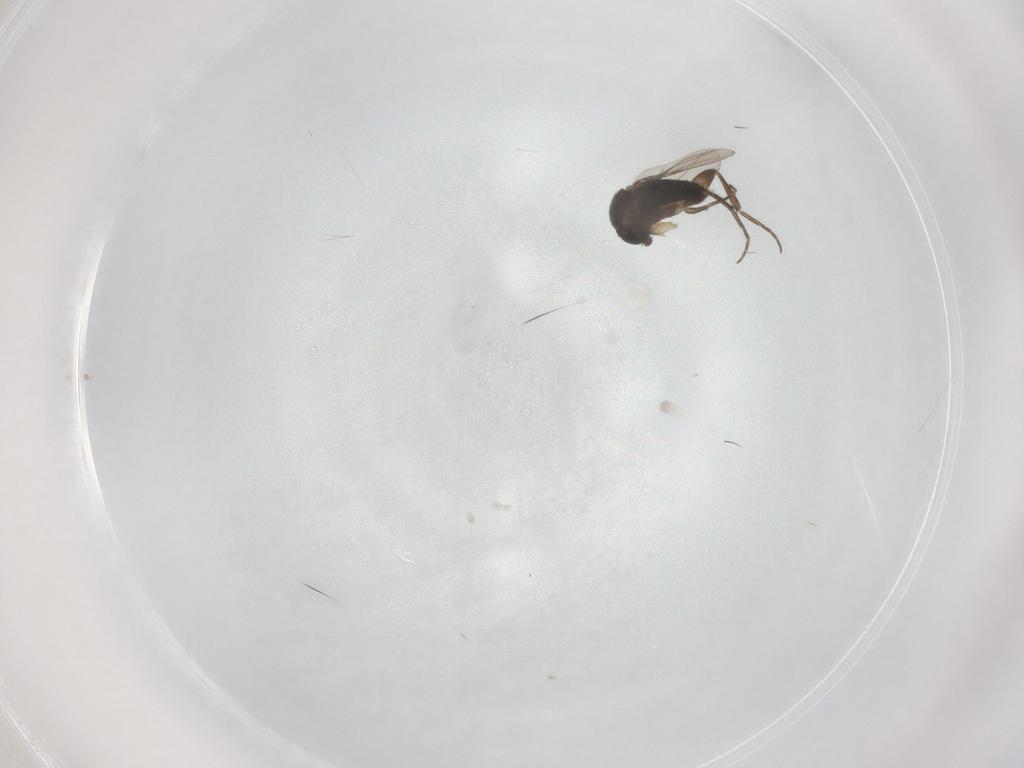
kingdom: Animalia
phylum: Arthropoda
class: Insecta
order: Diptera
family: Phoridae
